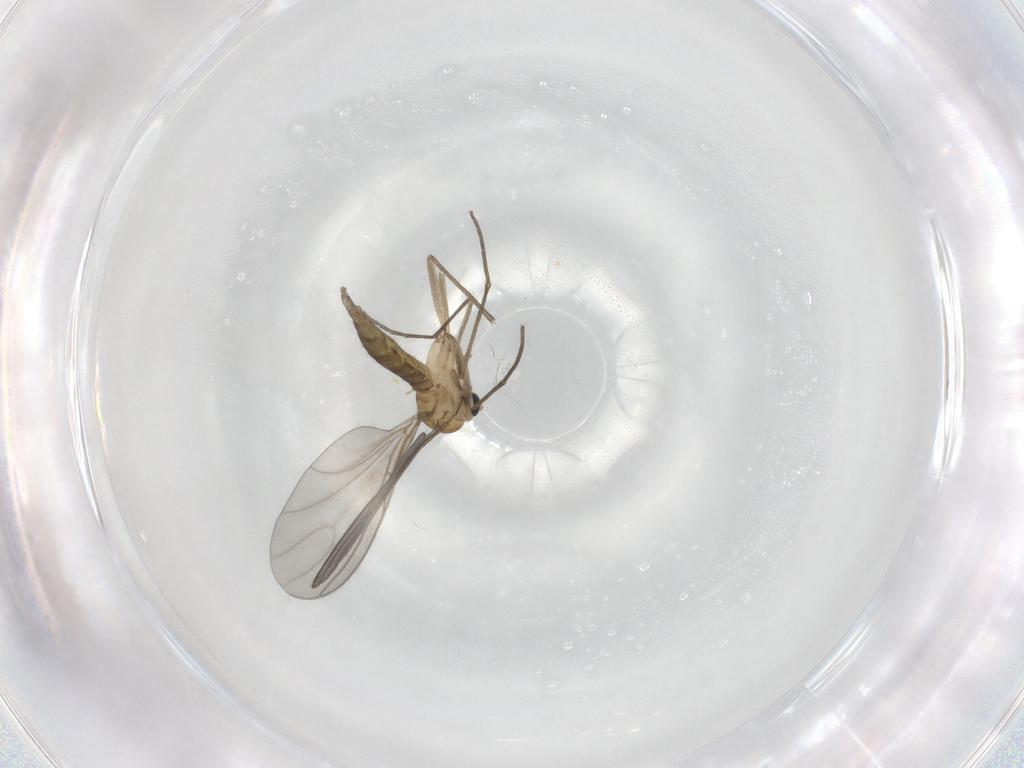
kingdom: Animalia
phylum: Arthropoda
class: Insecta
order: Diptera
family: Sciaridae
